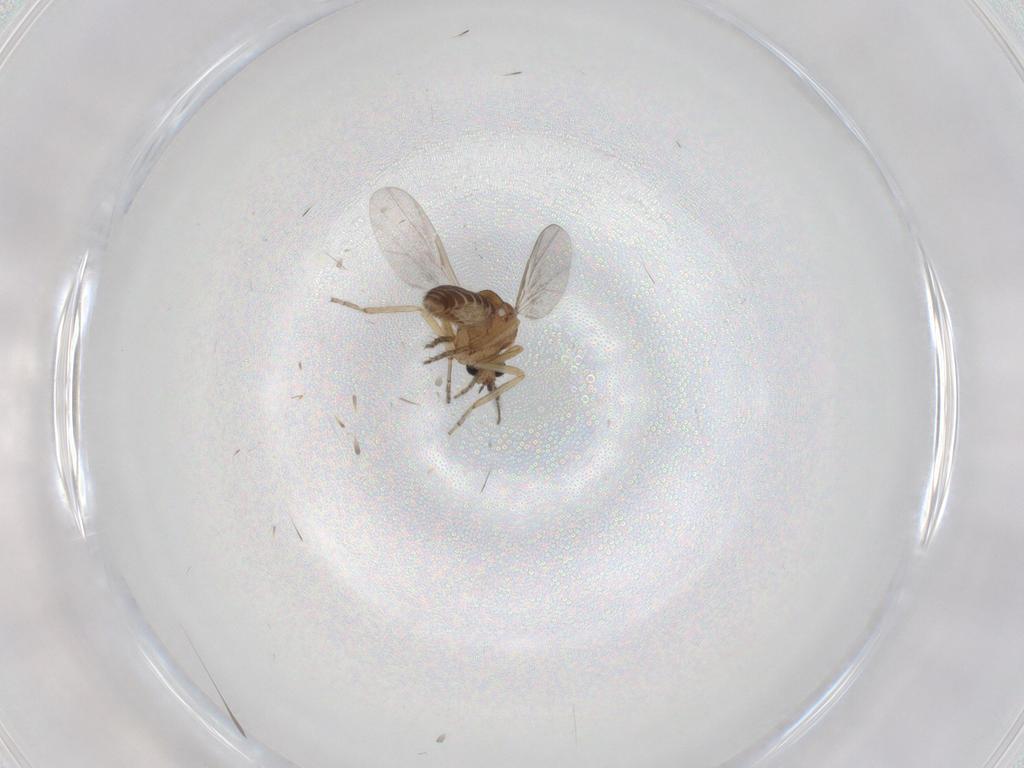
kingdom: Animalia
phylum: Arthropoda
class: Insecta
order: Diptera
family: Ceratopogonidae
